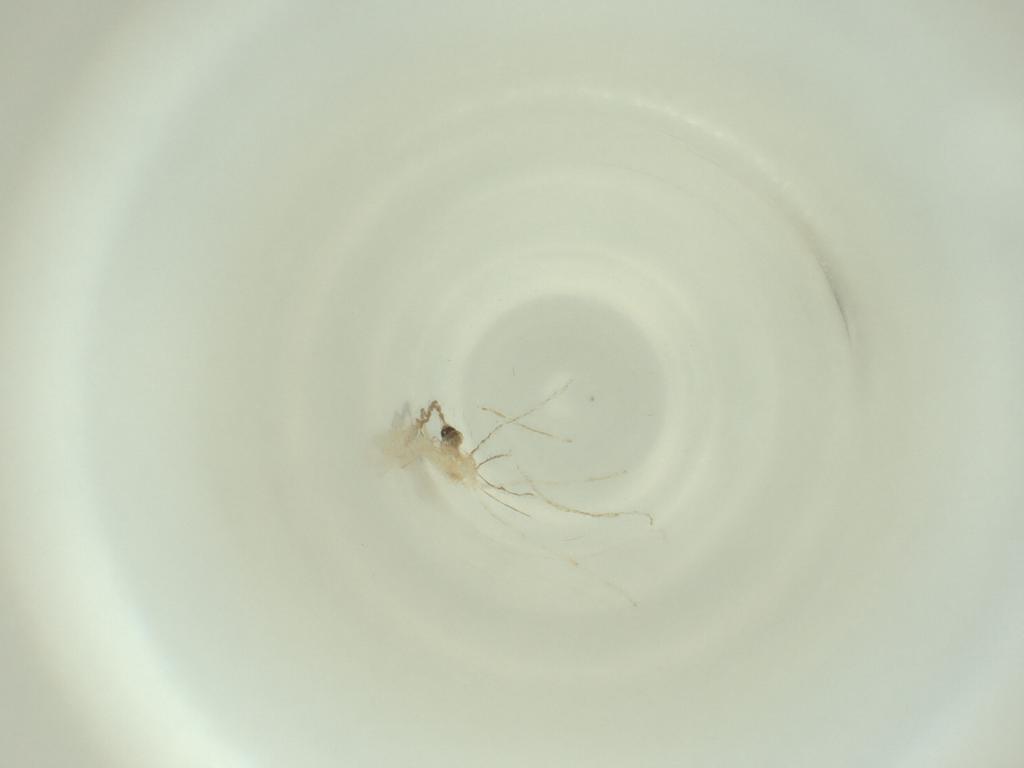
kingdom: Animalia
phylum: Arthropoda
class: Insecta
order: Diptera
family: Cecidomyiidae
